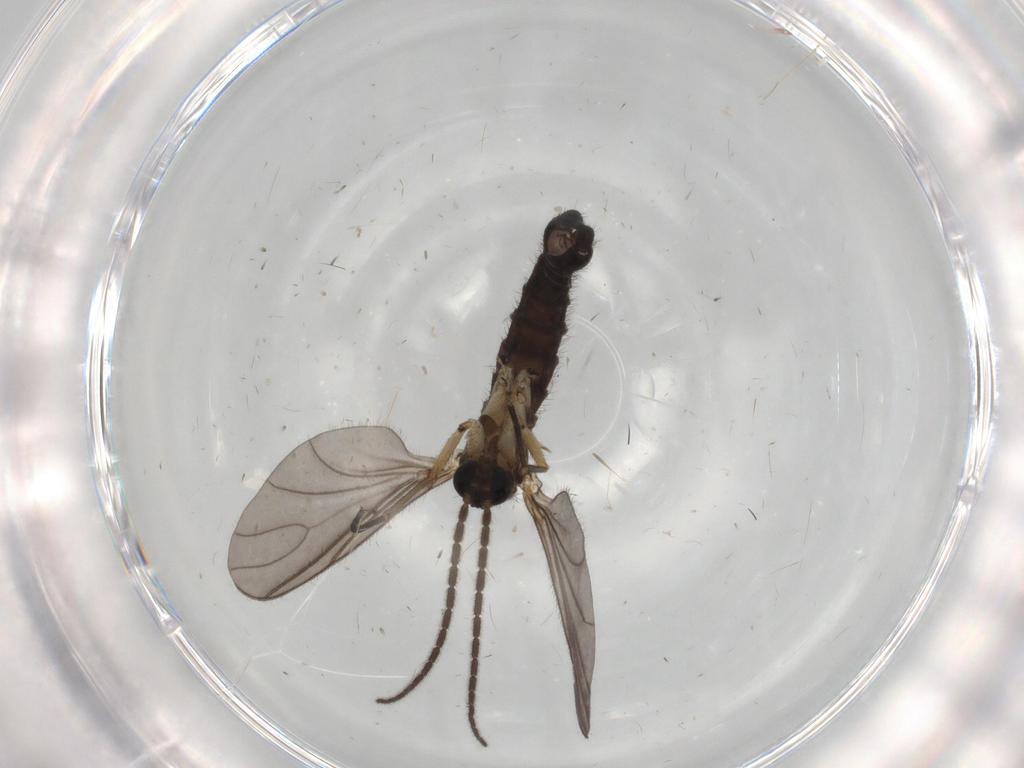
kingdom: Animalia
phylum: Arthropoda
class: Insecta
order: Diptera
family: Sciaridae
